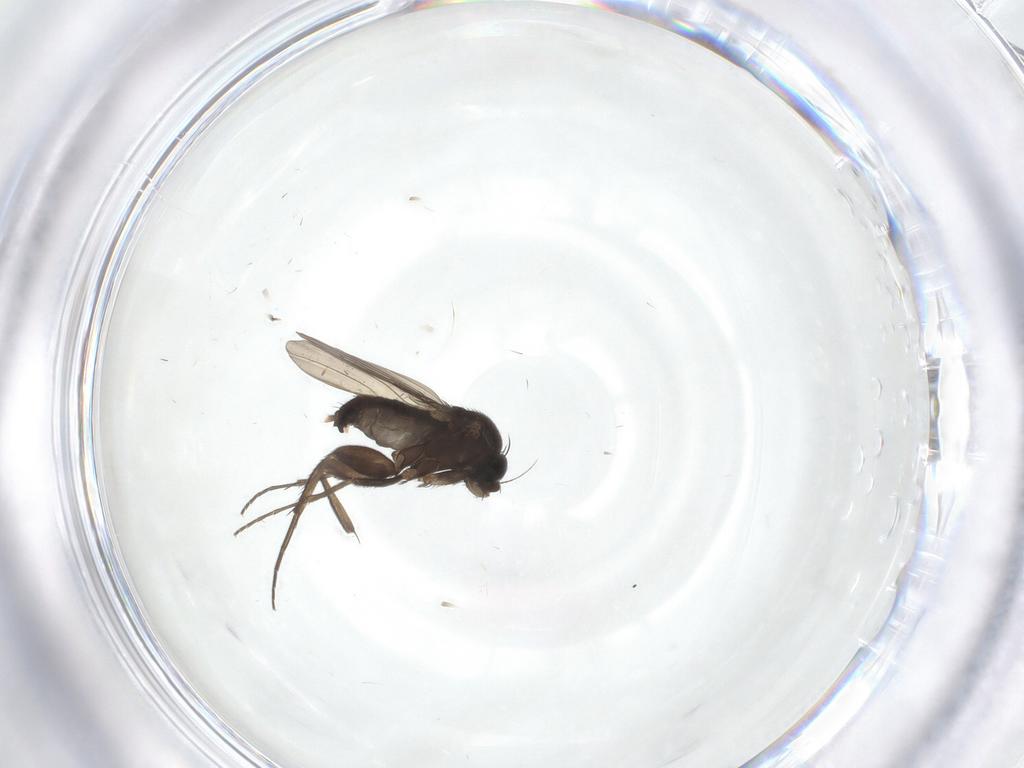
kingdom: Animalia
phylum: Arthropoda
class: Insecta
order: Diptera
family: Phoridae
